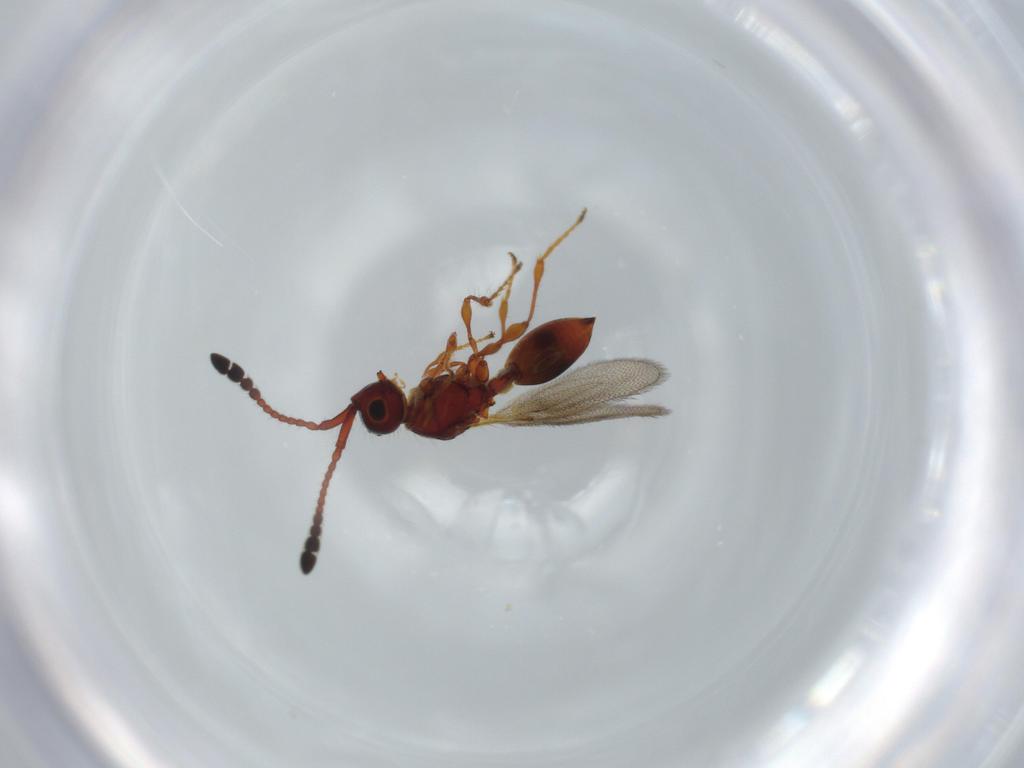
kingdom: Animalia
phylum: Arthropoda
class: Insecta
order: Hymenoptera
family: Diapriidae
